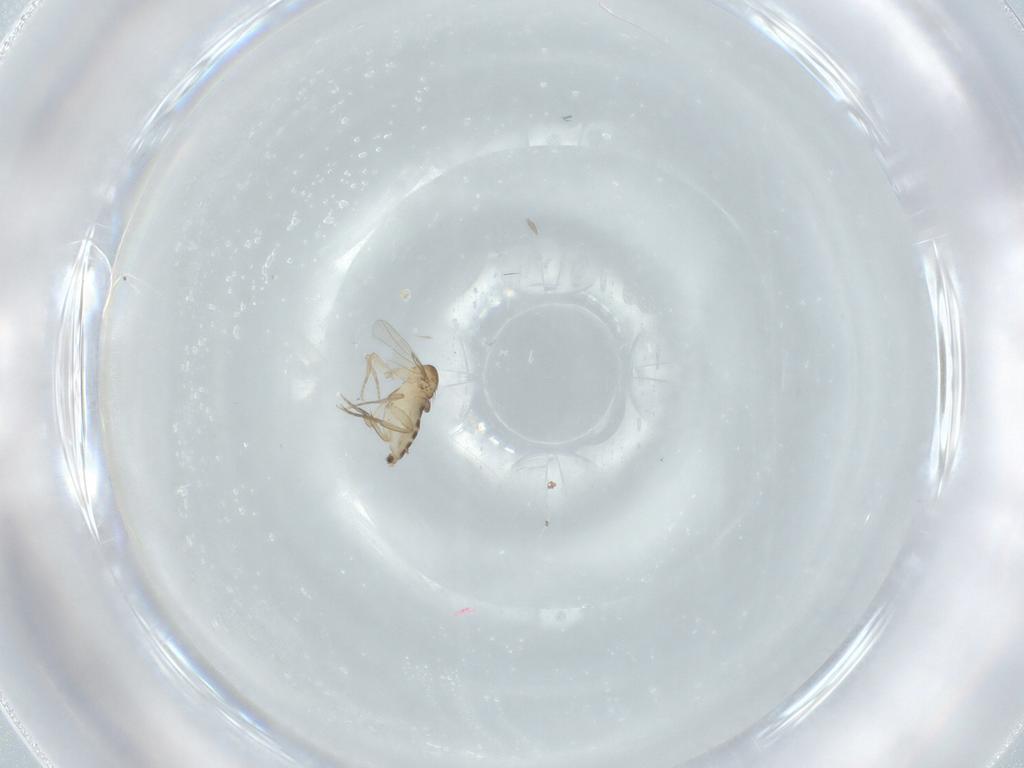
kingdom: Animalia
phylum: Arthropoda
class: Insecta
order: Diptera
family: Phoridae
